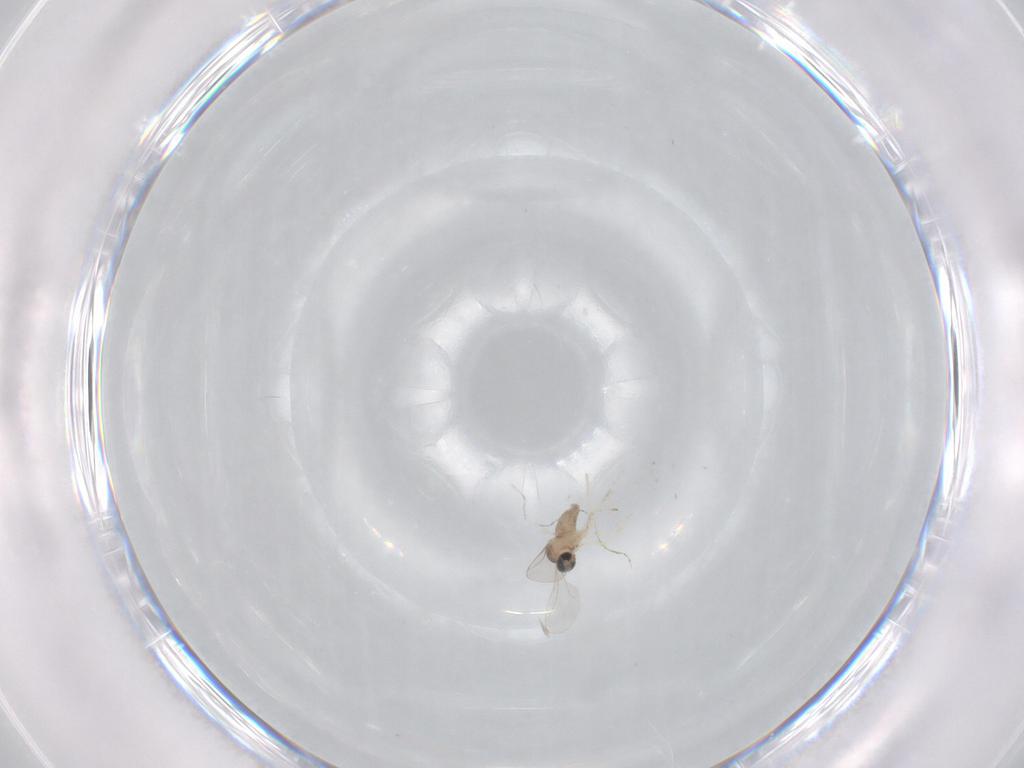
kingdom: Animalia
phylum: Arthropoda
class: Insecta
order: Diptera
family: Cecidomyiidae
